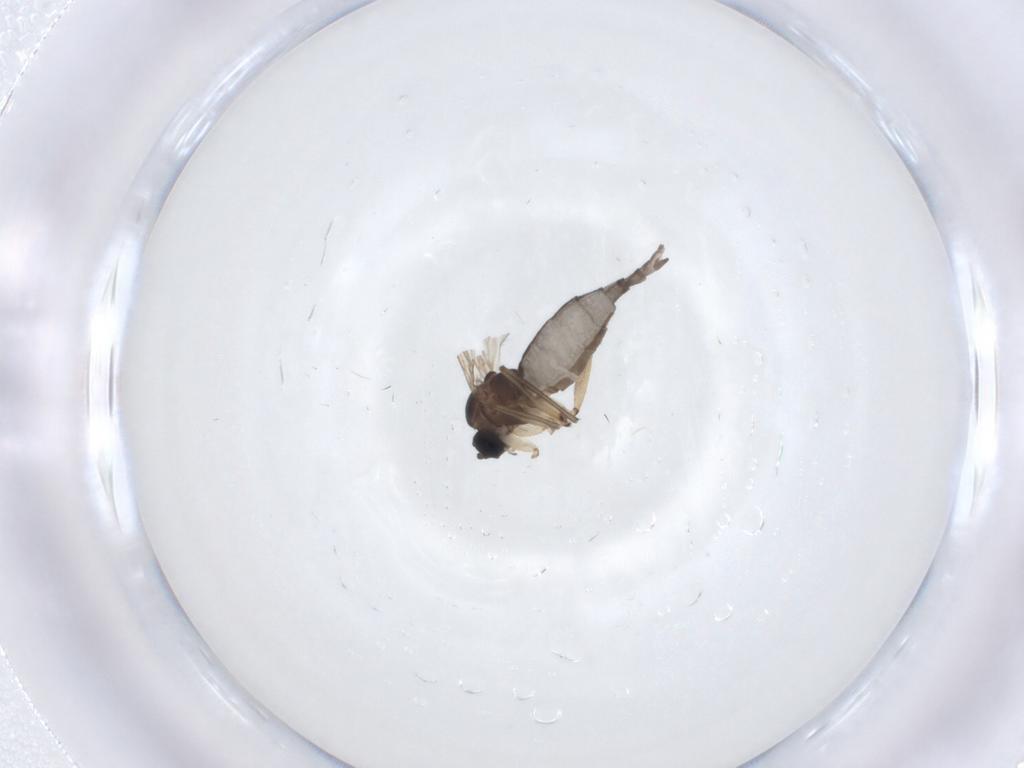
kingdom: Animalia
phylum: Arthropoda
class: Insecta
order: Diptera
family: Sciaridae
